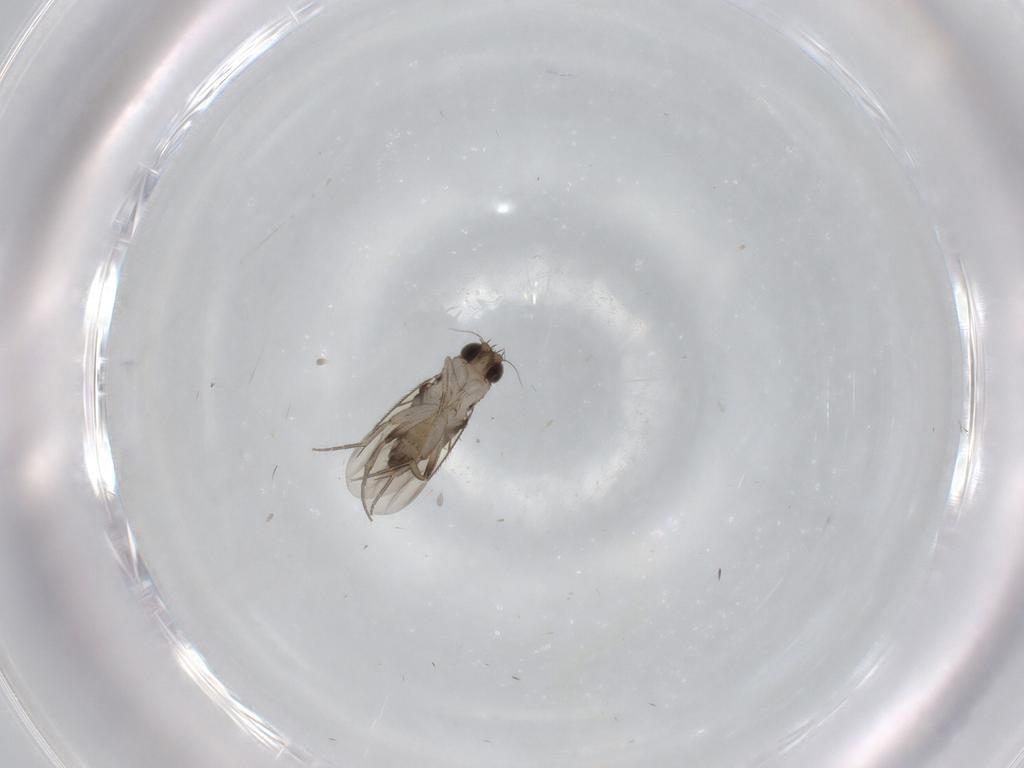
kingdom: Animalia
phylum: Arthropoda
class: Insecta
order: Diptera
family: Phoridae
